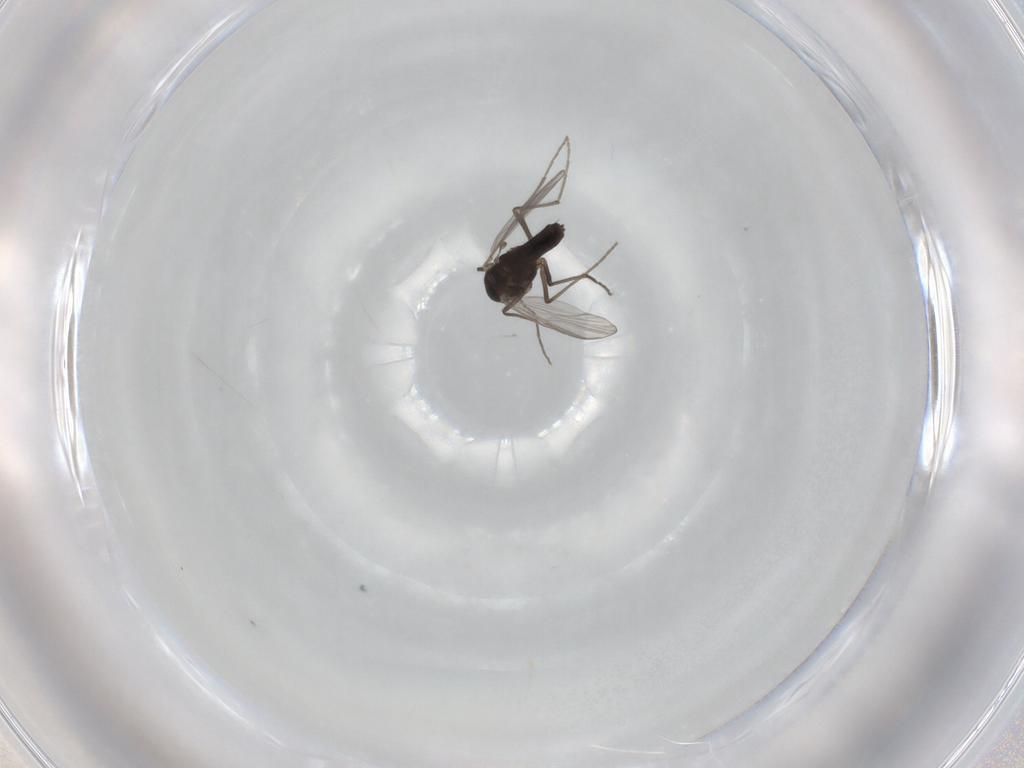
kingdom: Animalia
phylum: Arthropoda
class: Insecta
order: Diptera
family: Chironomidae
